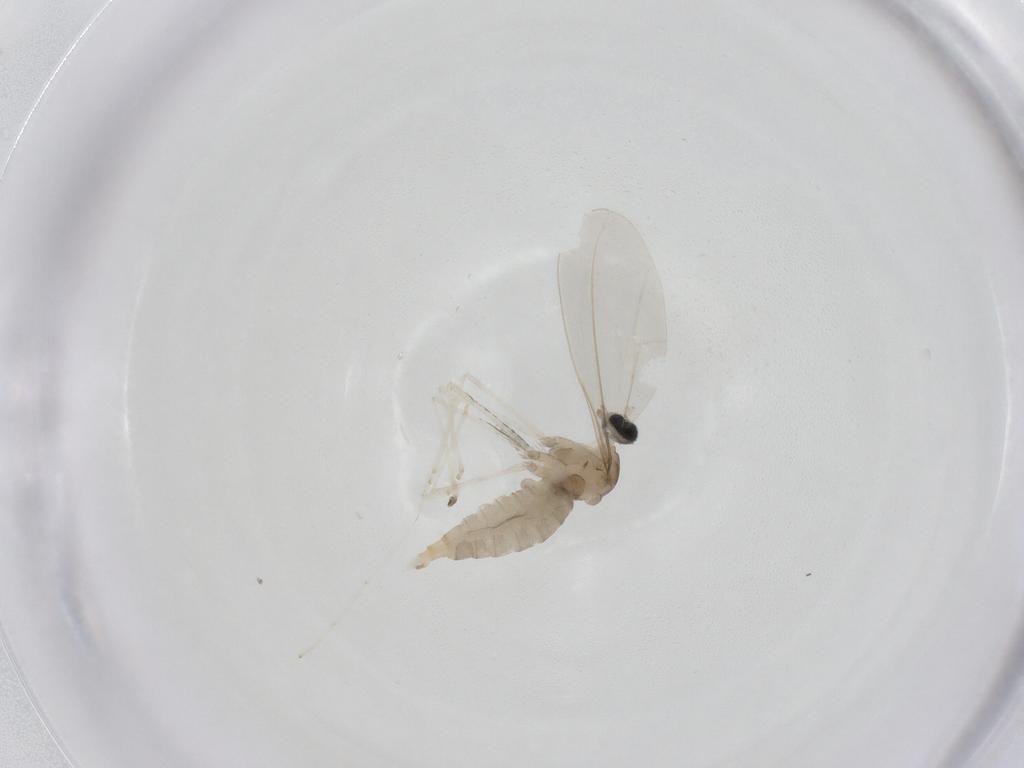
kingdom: Animalia
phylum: Arthropoda
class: Insecta
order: Diptera
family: Cecidomyiidae
